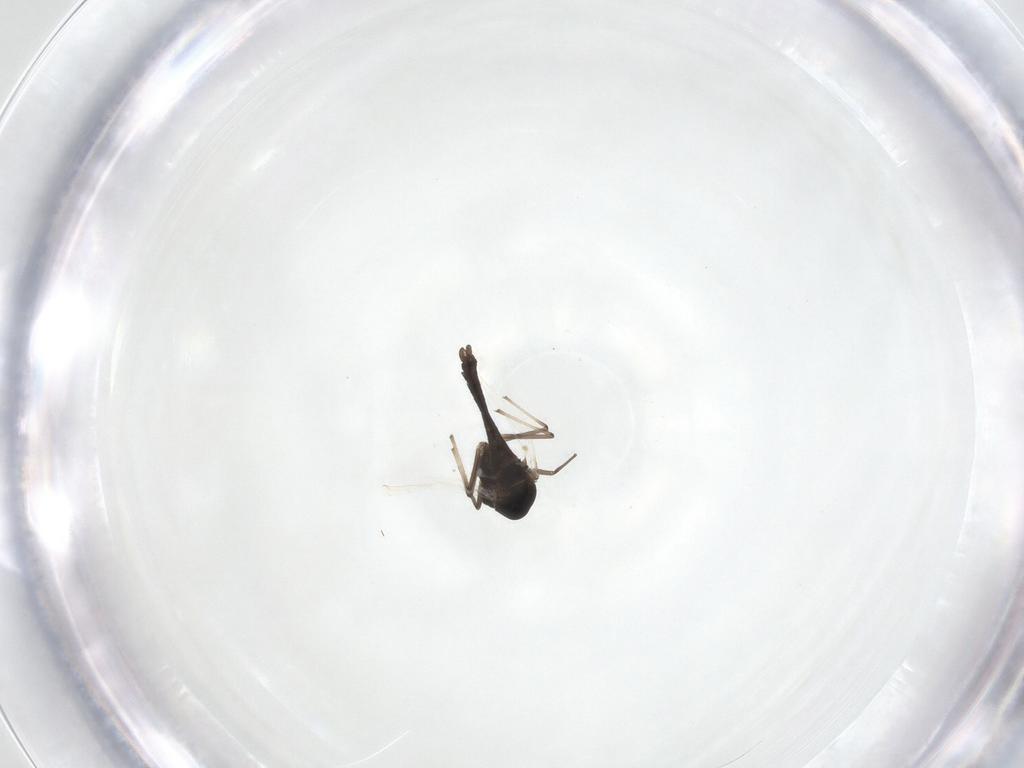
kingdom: Animalia
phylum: Arthropoda
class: Insecta
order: Diptera
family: Chironomidae
